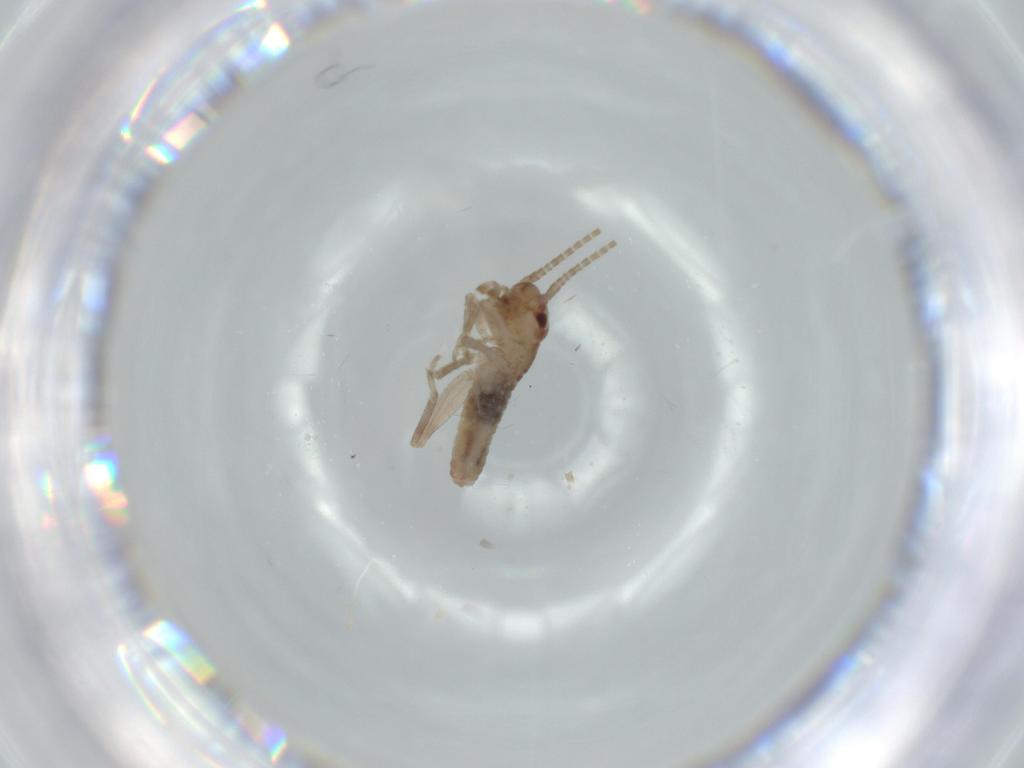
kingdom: Animalia
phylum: Arthropoda
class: Insecta
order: Orthoptera
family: Mogoplistidae
